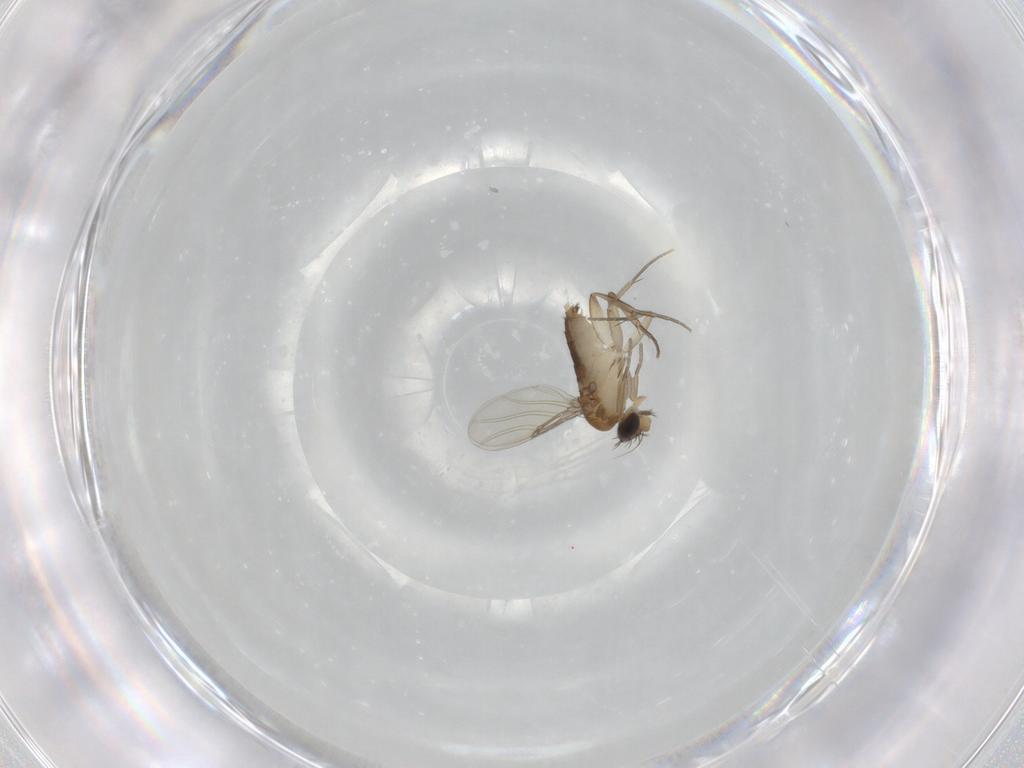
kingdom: Animalia
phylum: Arthropoda
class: Insecta
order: Diptera
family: Phoridae
